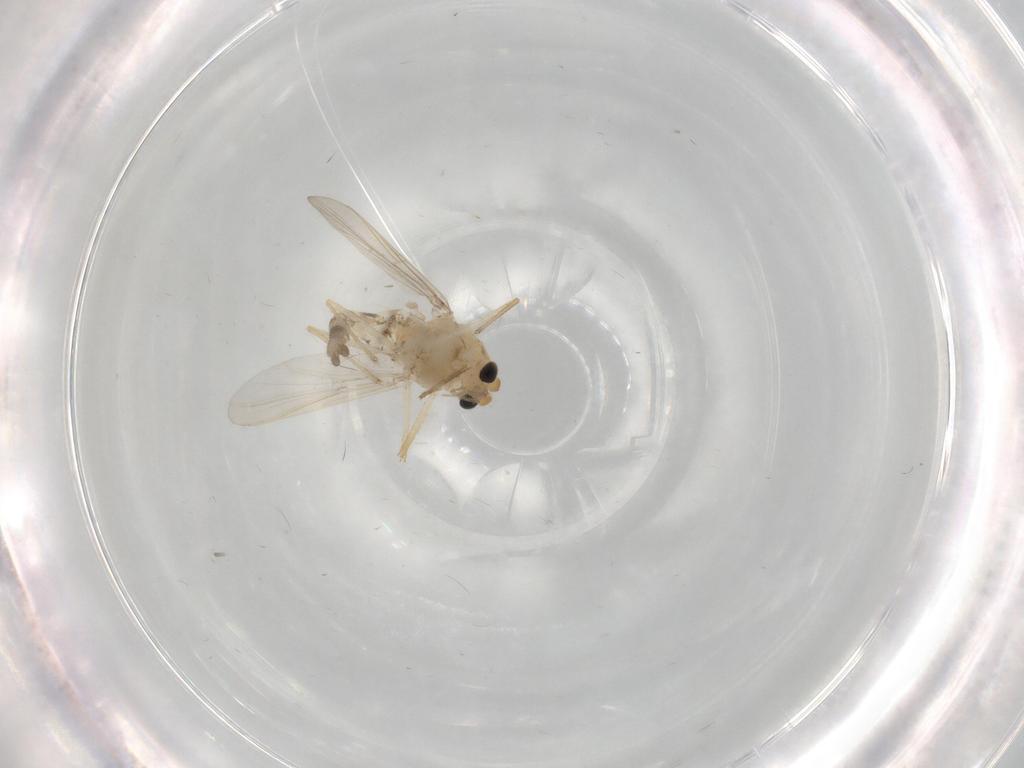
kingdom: Animalia
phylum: Arthropoda
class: Insecta
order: Diptera
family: Chironomidae
